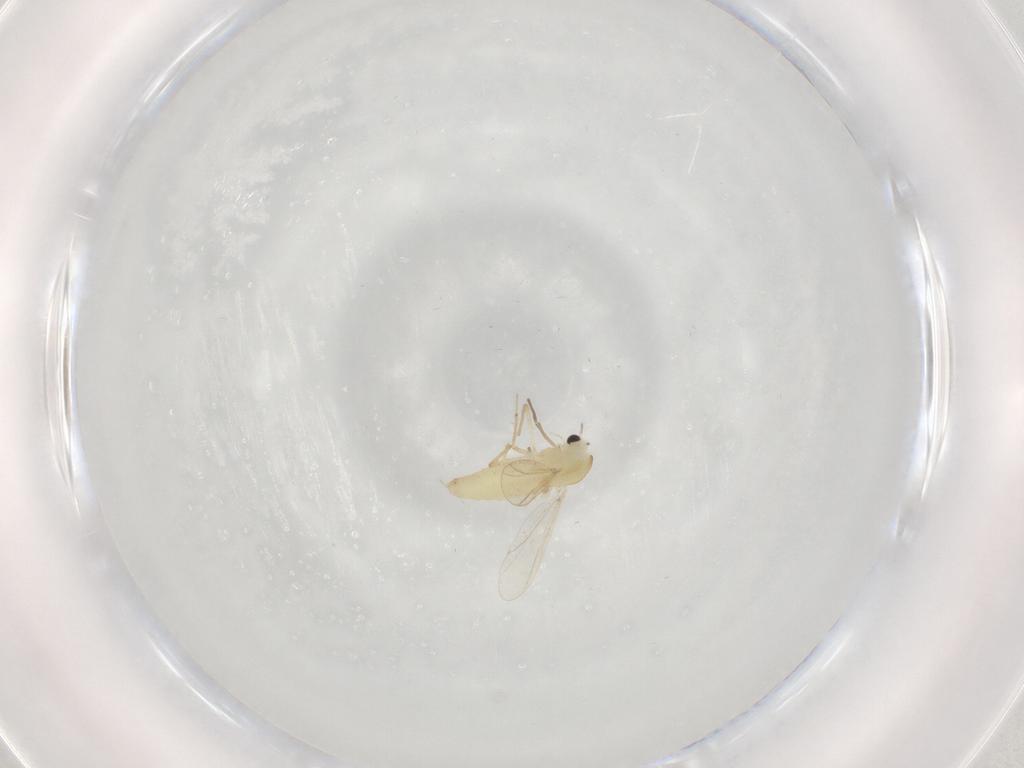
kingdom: Animalia
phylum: Arthropoda
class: Insecta
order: Diptera
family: Chironomidae
